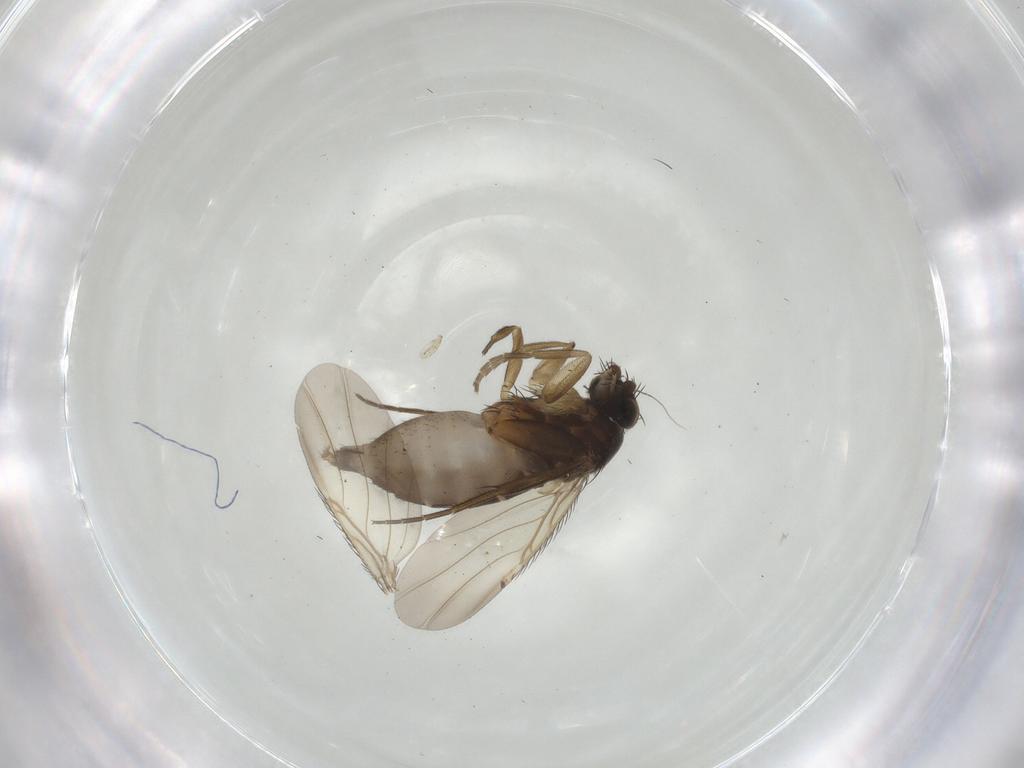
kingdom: Animalia
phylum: Arthropoda
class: Insecta
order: Diptera
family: Phoridae
